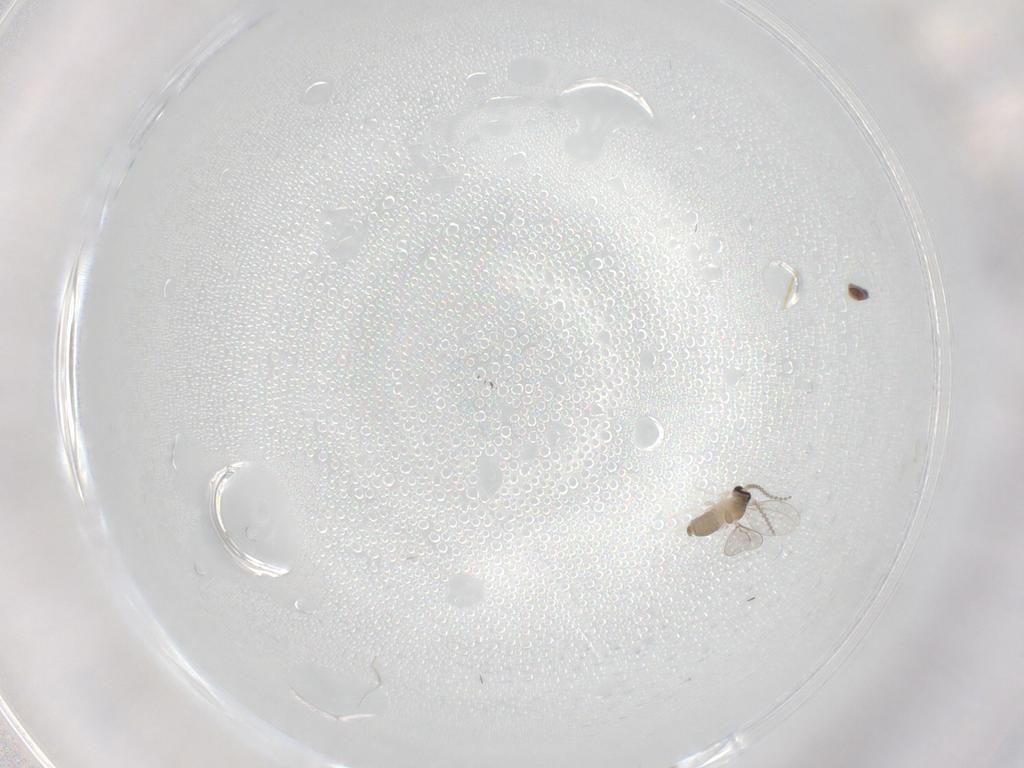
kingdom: Animalia
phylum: Arthropoda
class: Insecta
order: Diptera
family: Cecidomyiidae
